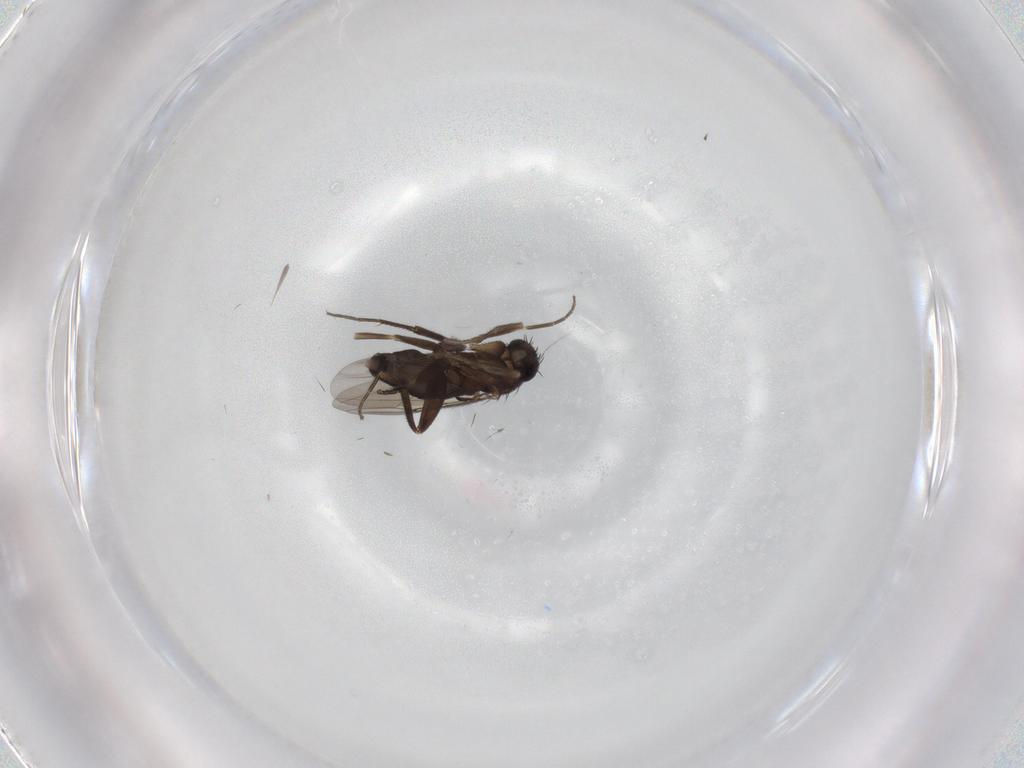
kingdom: Animalia
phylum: Arthropoda
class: Insecta
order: Diptera
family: Phoridae
